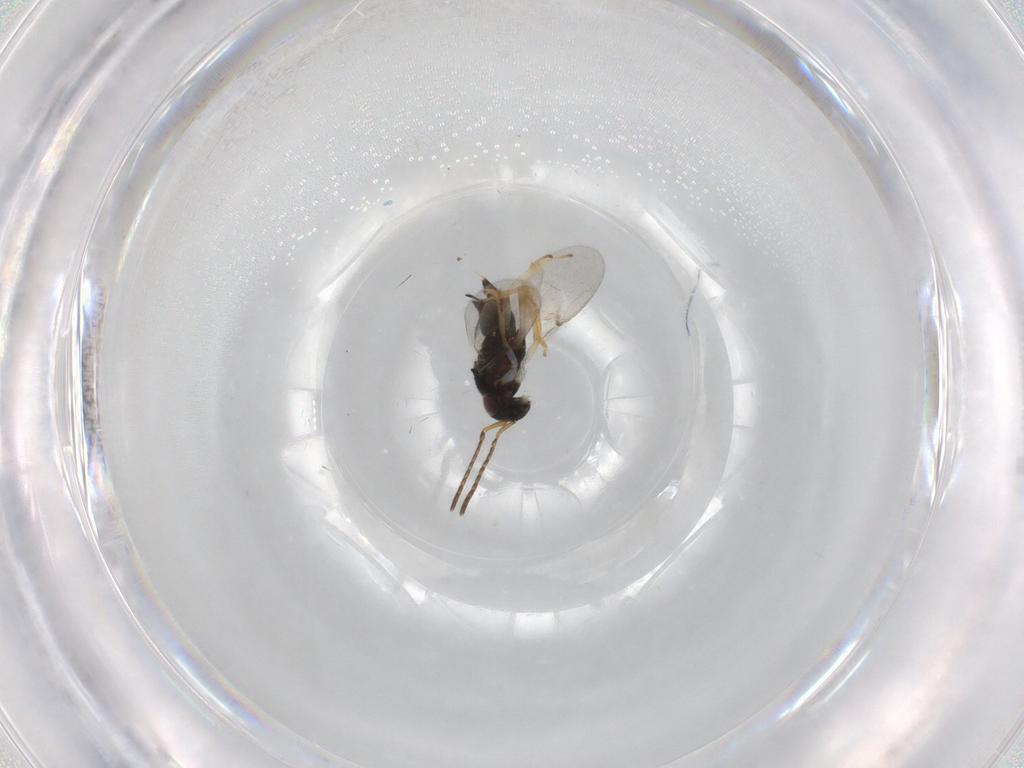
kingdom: Animalia
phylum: Arthropoda
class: Insecta
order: Hymenoptera
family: Encyrtidae
